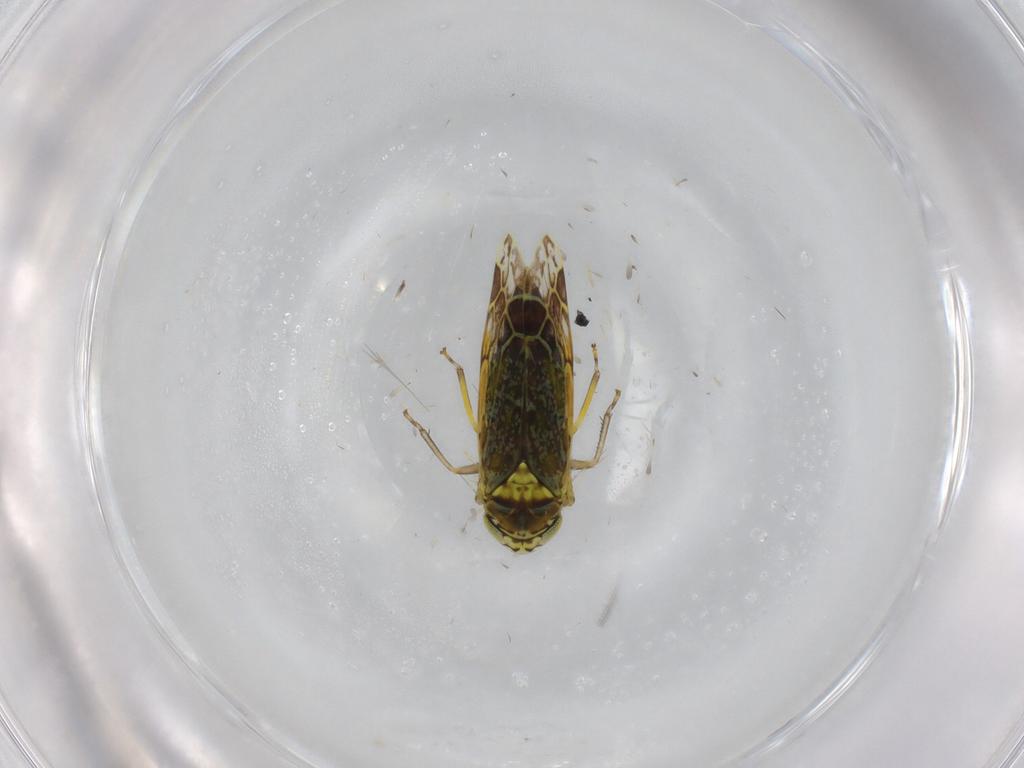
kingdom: Animalia
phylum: Arthropoda
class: Insecta
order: Hemiptera
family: Cicadellidae
